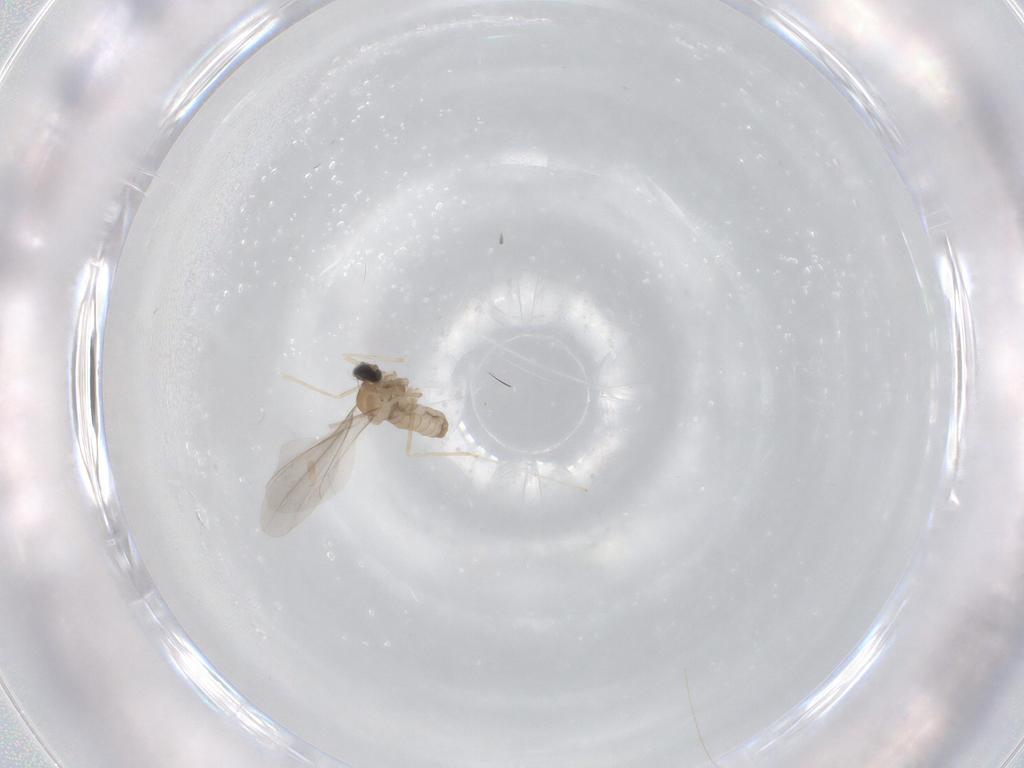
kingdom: Animalia
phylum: Arthropoda
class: Insecta
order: Diptera
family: Cecidomyiidae
